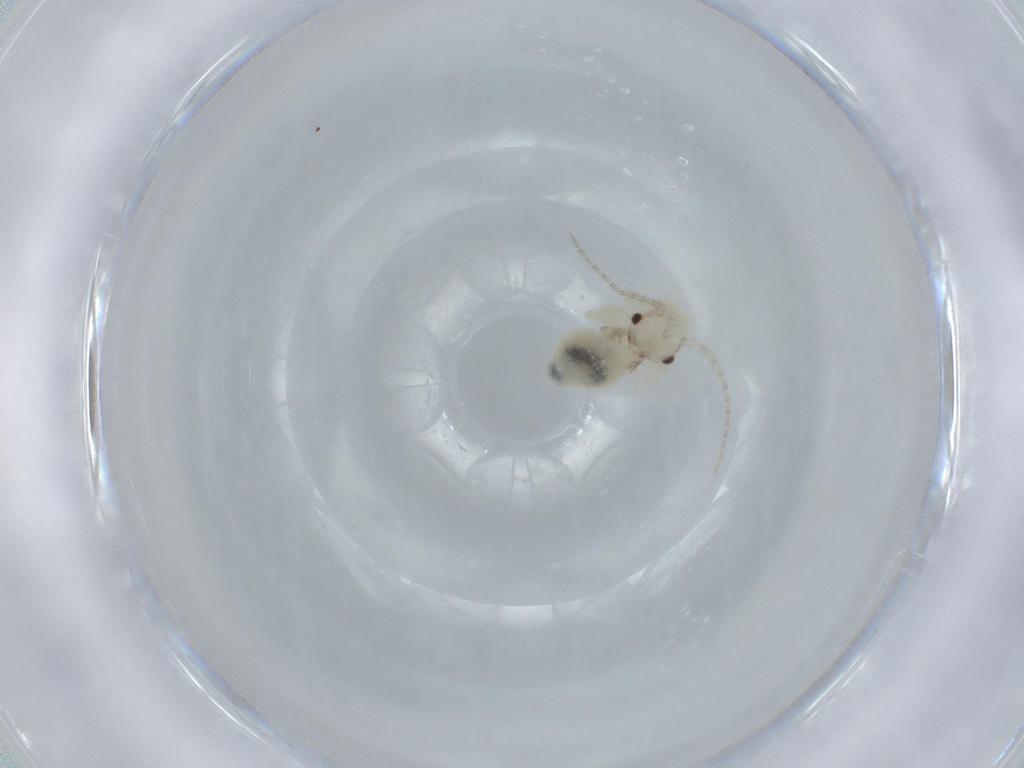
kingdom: Animalia
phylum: Arthropoda
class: Insecta
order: Psocodea
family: Amphipsocidae
